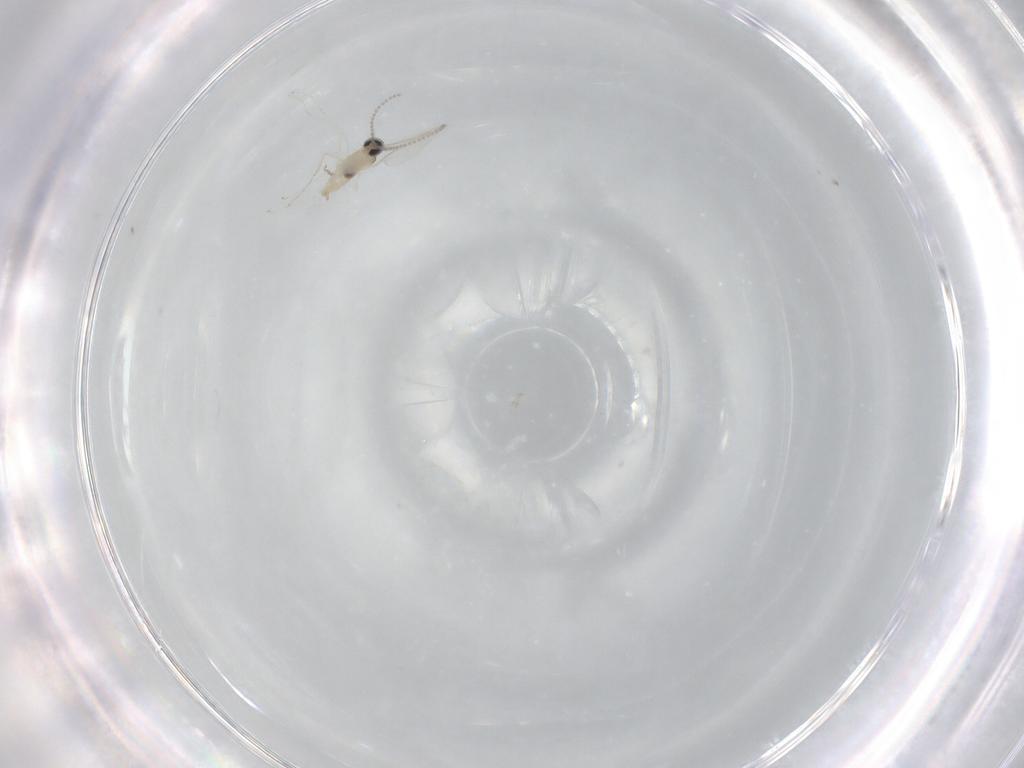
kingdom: Animalia
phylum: Arthropoda
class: Insecta
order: Diptera
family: Cecidomyiidae
